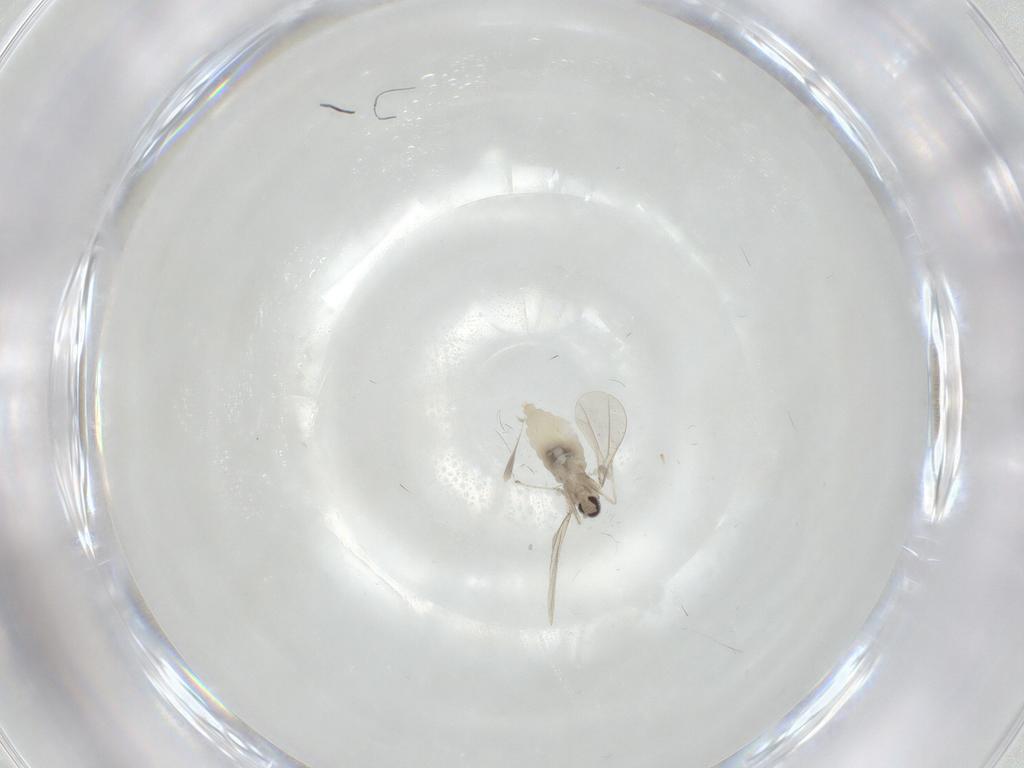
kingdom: Animalia
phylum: Arthropoda
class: Insecta
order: Diptera
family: Cecidomyiidae
